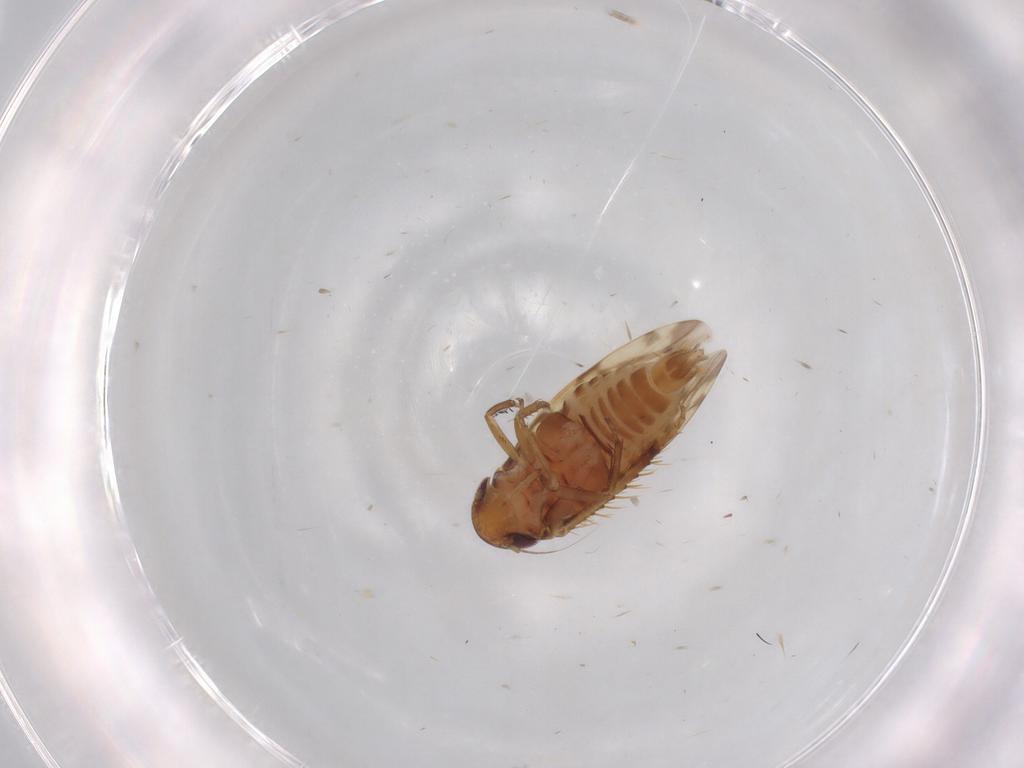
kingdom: Animalia
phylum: Arthropoda
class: Insecta
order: Hemiptera
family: Cicadellidae
